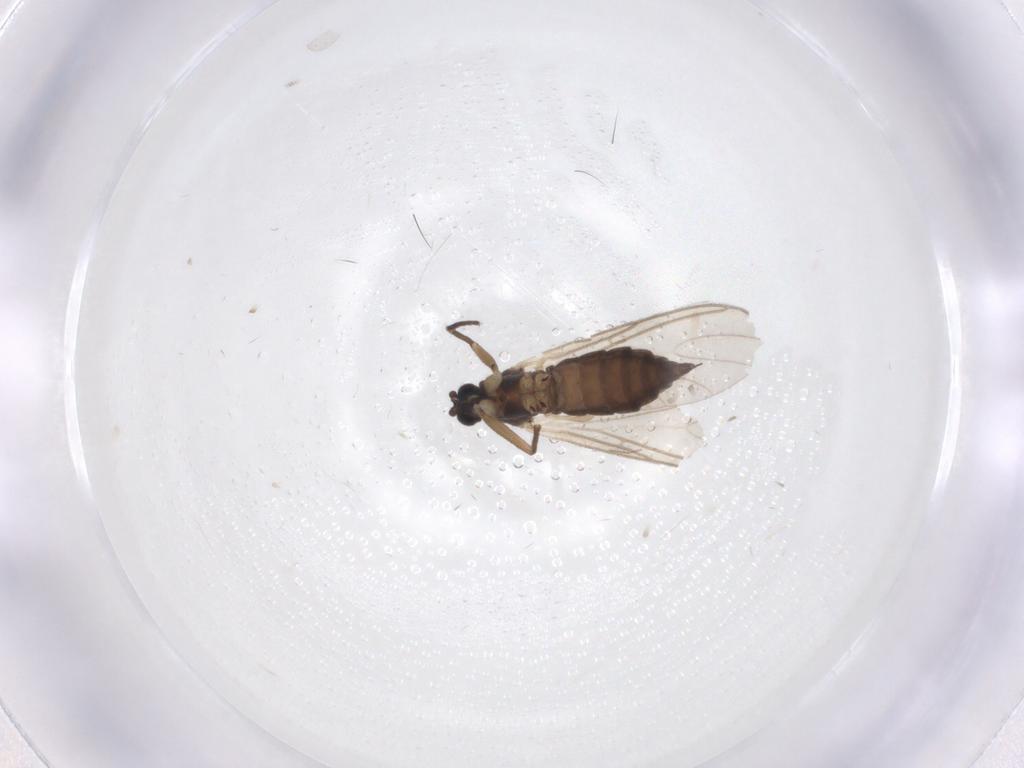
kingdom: Animalia
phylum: Arthropoda
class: Insecta
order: Diptera
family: Sciaridae
